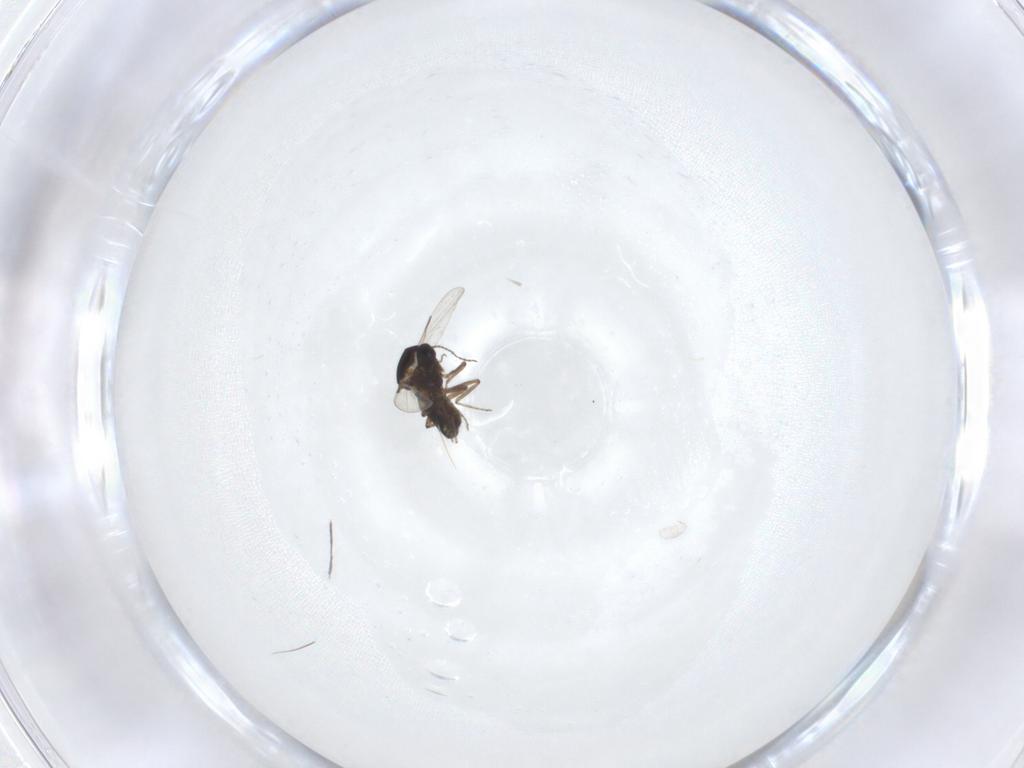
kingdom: Animalia
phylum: Arthropoda
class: Insecta
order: Diptera
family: Ceratopogonidae
